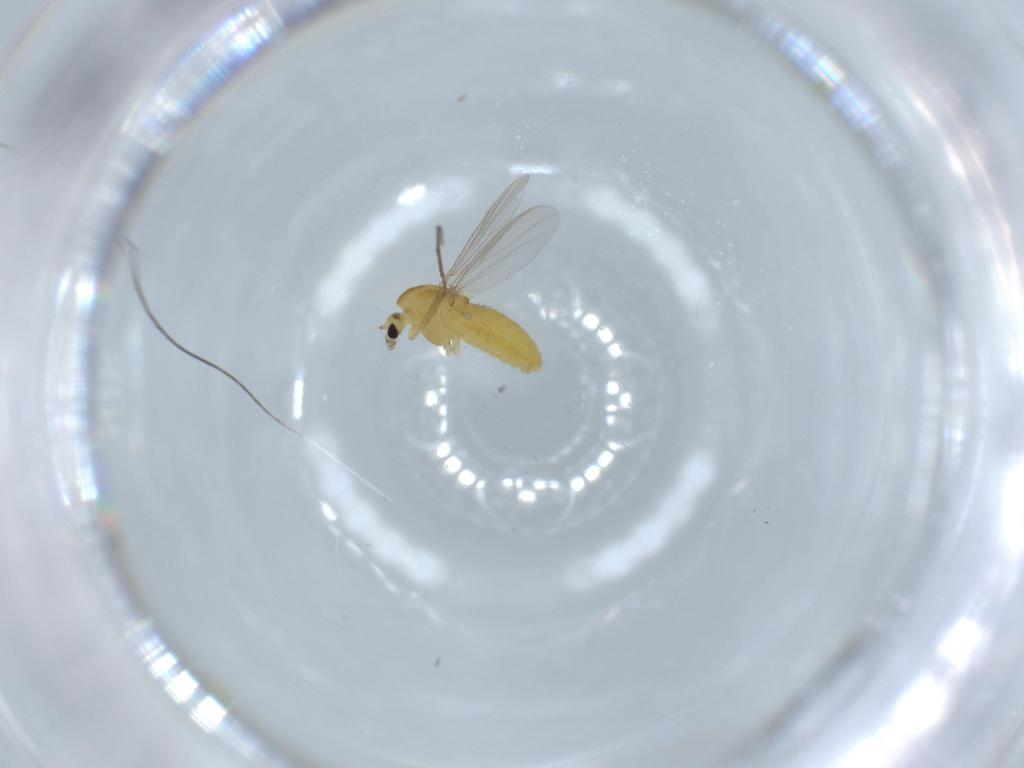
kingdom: Animalia
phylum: Arthropoda
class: Insecta
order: Diptera
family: Chironomidae
